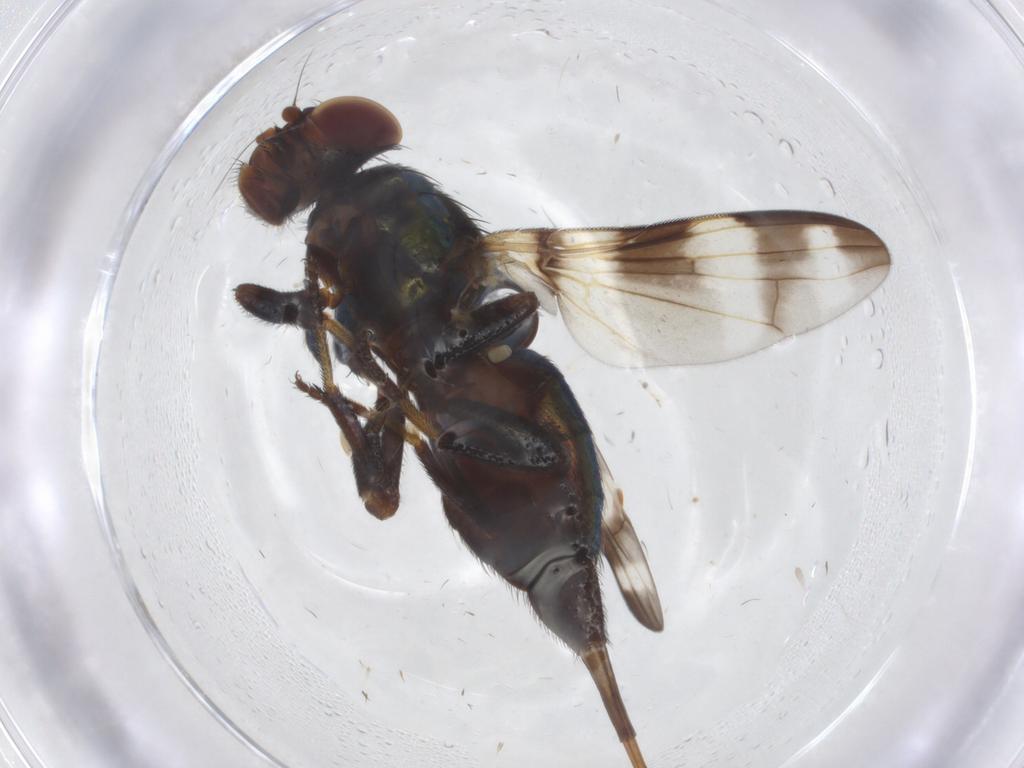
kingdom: Animalia
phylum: Arthropoda
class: Insecta
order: Diptera
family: Ulidiidae
